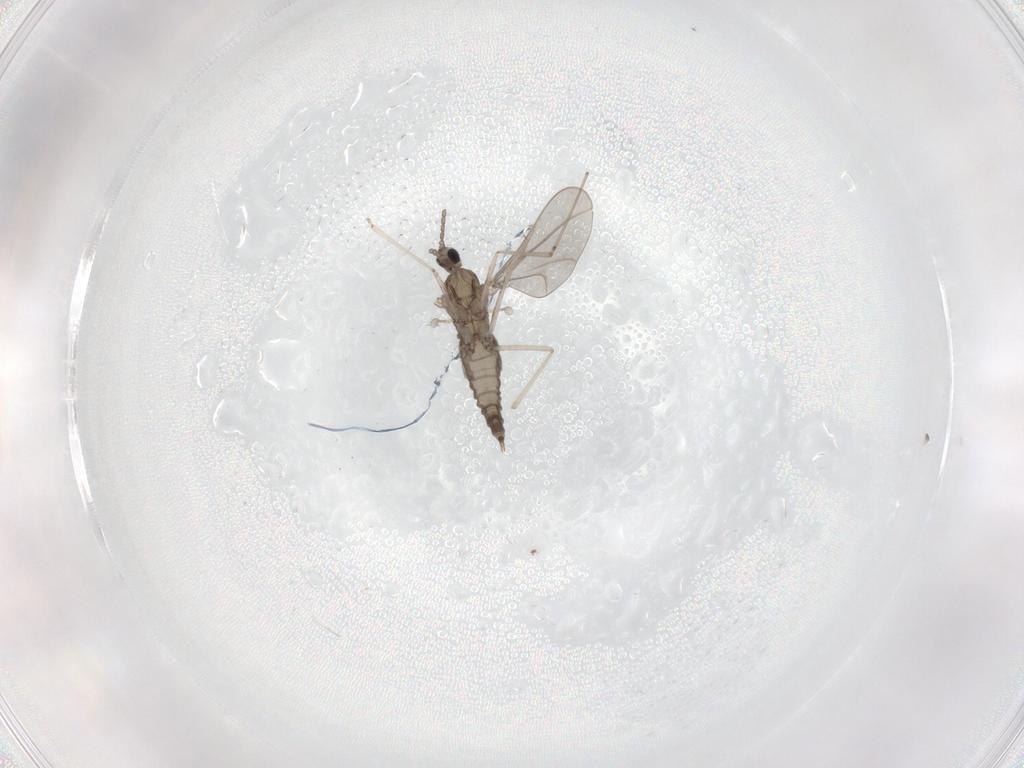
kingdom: Animalia
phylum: Arthropoda
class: Insecta
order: Diptera
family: Cecidomyiidae
